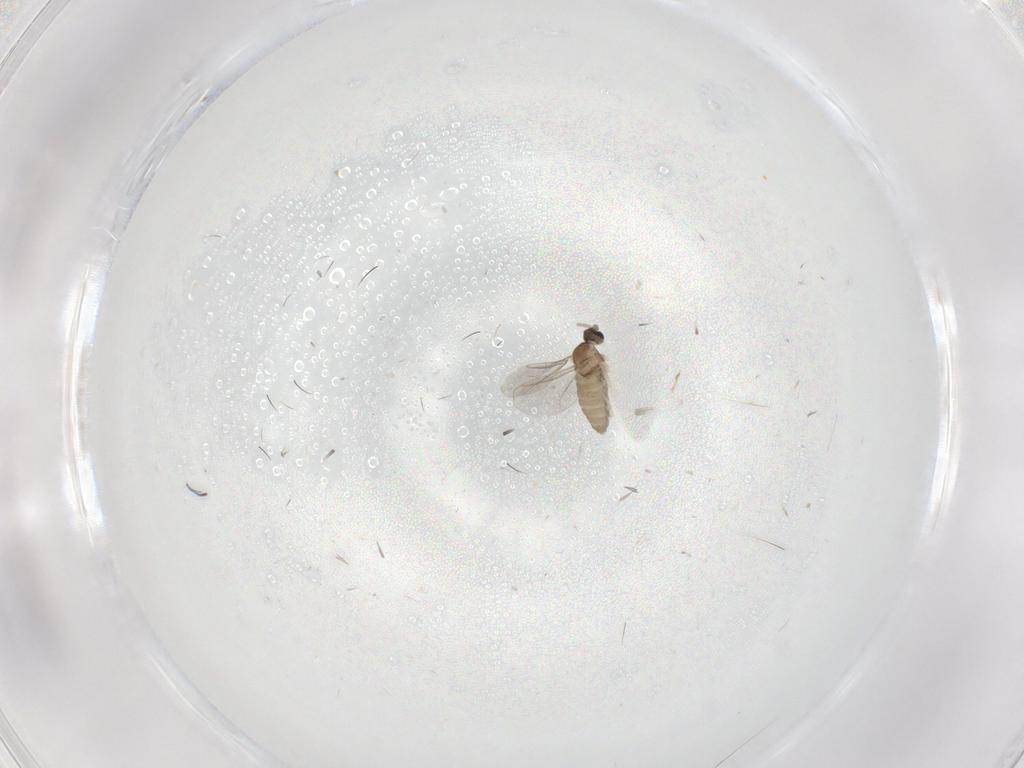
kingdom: Animalia
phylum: Arthropoda
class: Insecta
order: Diptera
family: Cecidomyiidae
